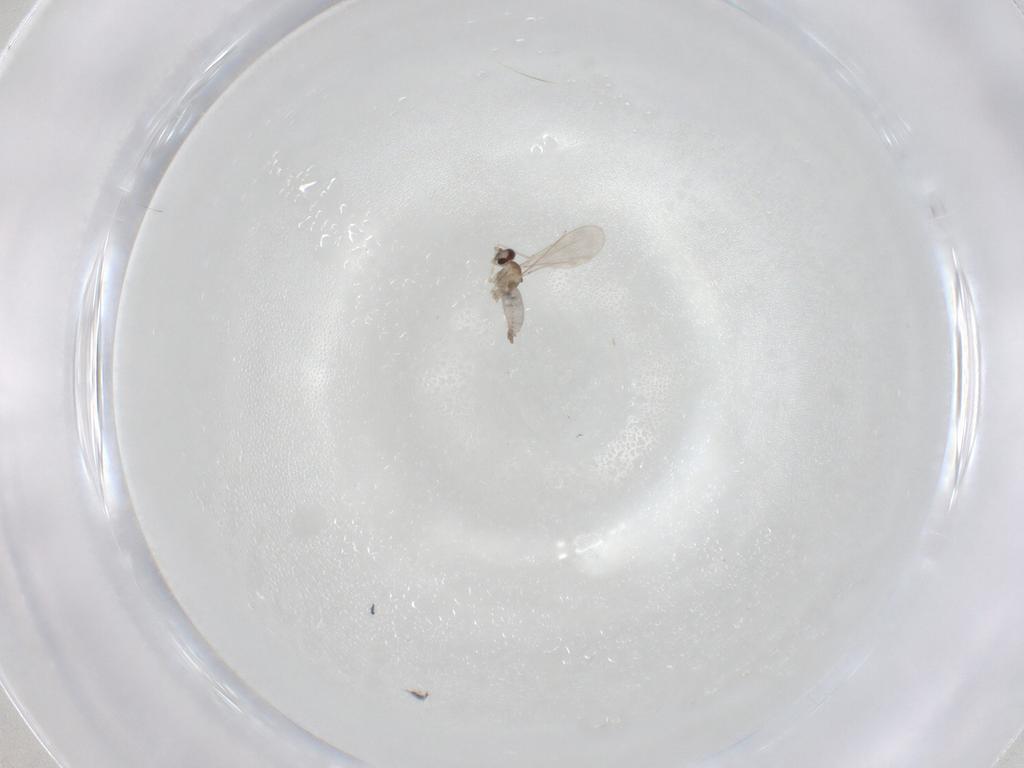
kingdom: Animalia
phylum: Arthropoda
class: Insecta
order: Diptera
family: Cecidomyiidae
